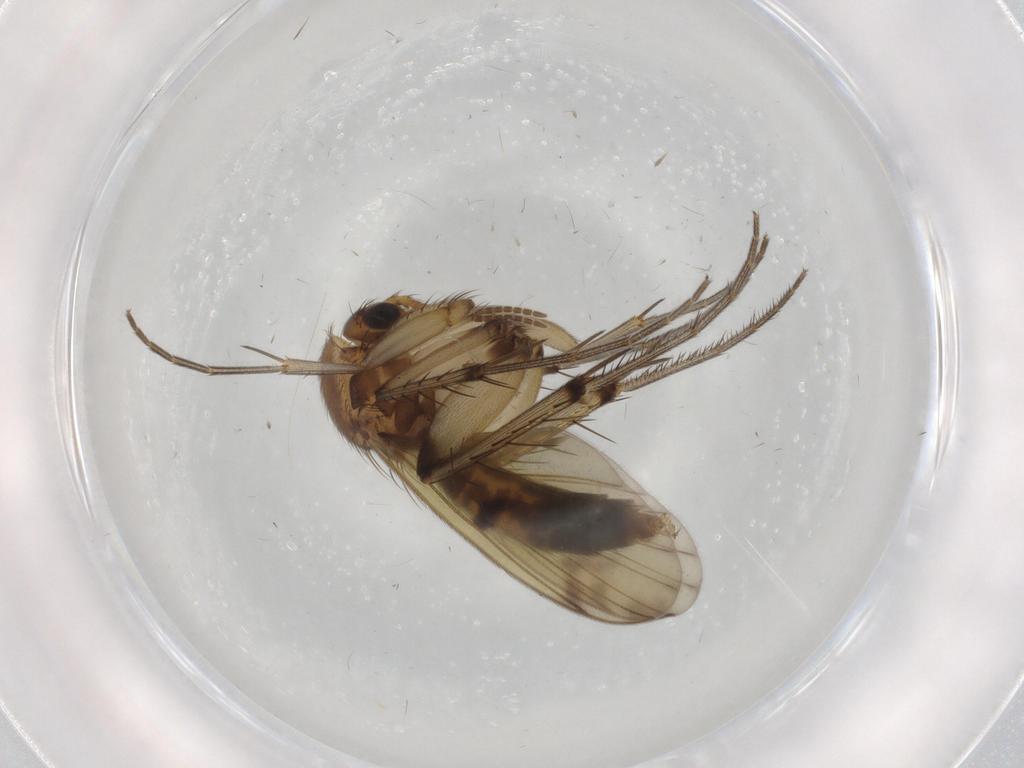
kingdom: Animalia
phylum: Arthropoda
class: Insecta
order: Diptera
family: Mycetophilidae
